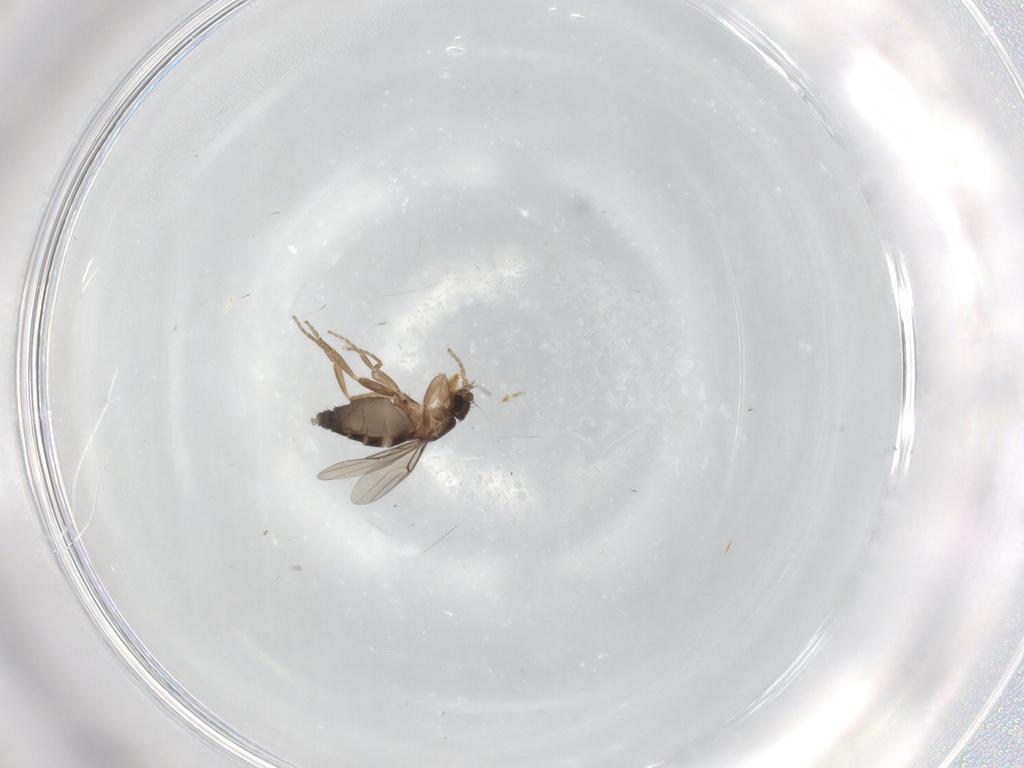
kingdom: Animalia
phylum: Arthropoda
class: Insecta
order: Diptera
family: Phoridae
